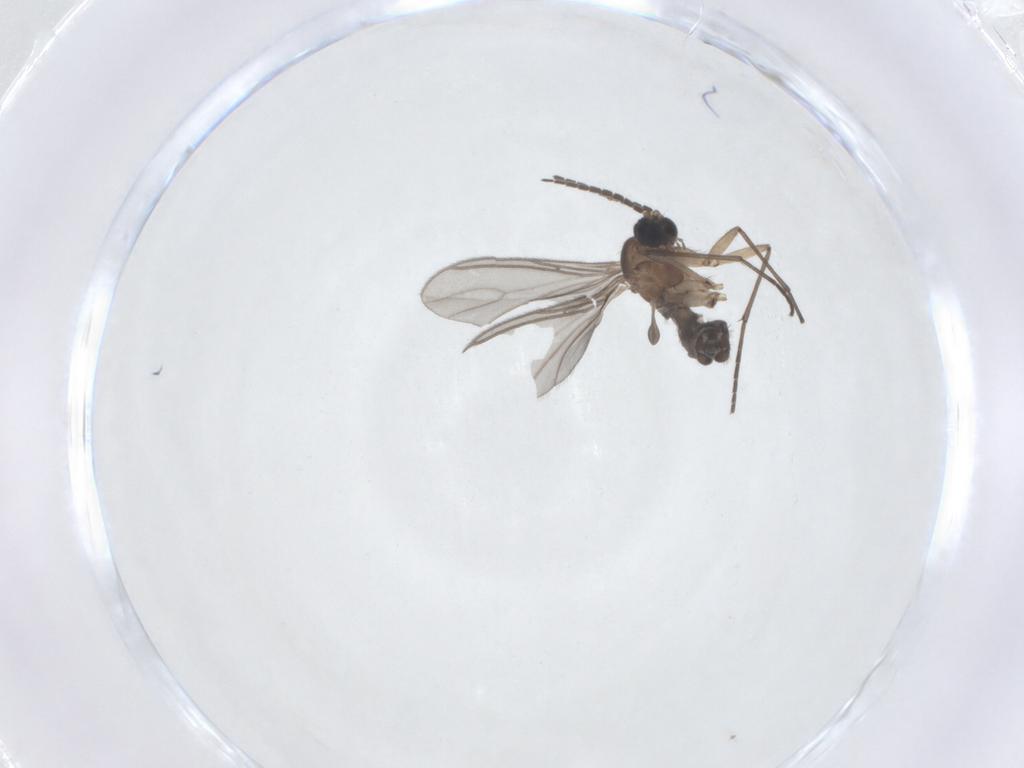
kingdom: Animalia
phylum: Arthropoda
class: Insecta
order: Diptera
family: Sciaridae
